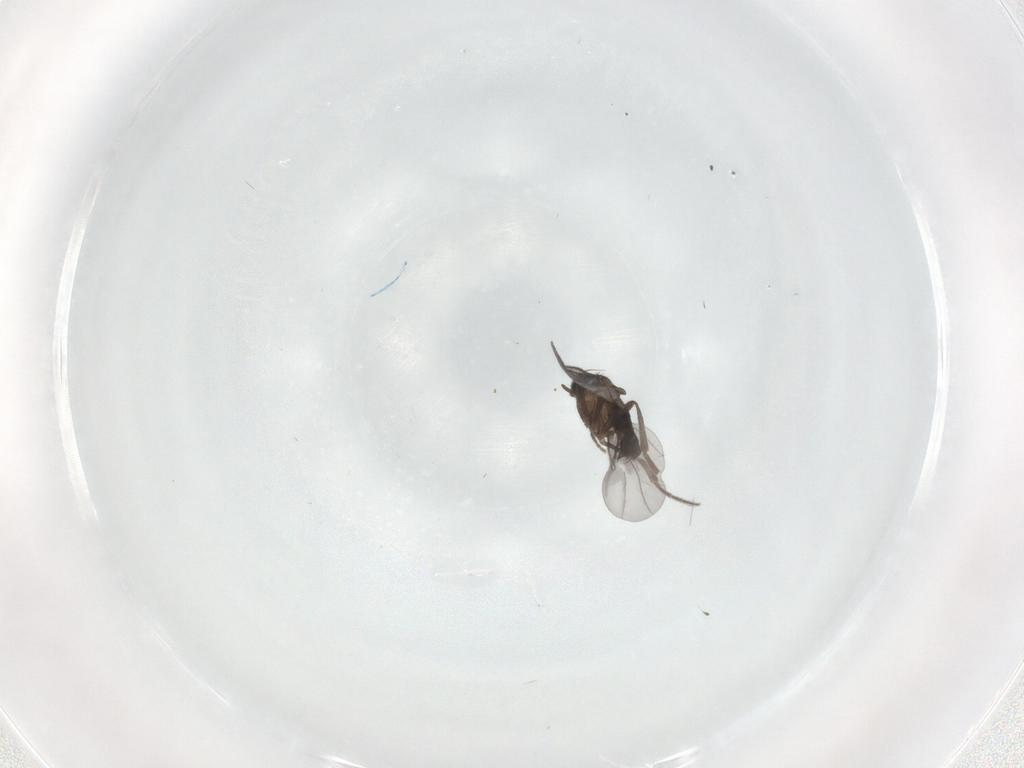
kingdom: Animalia
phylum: Arthropoda
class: Insecta
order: Diptera
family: Phoridae
